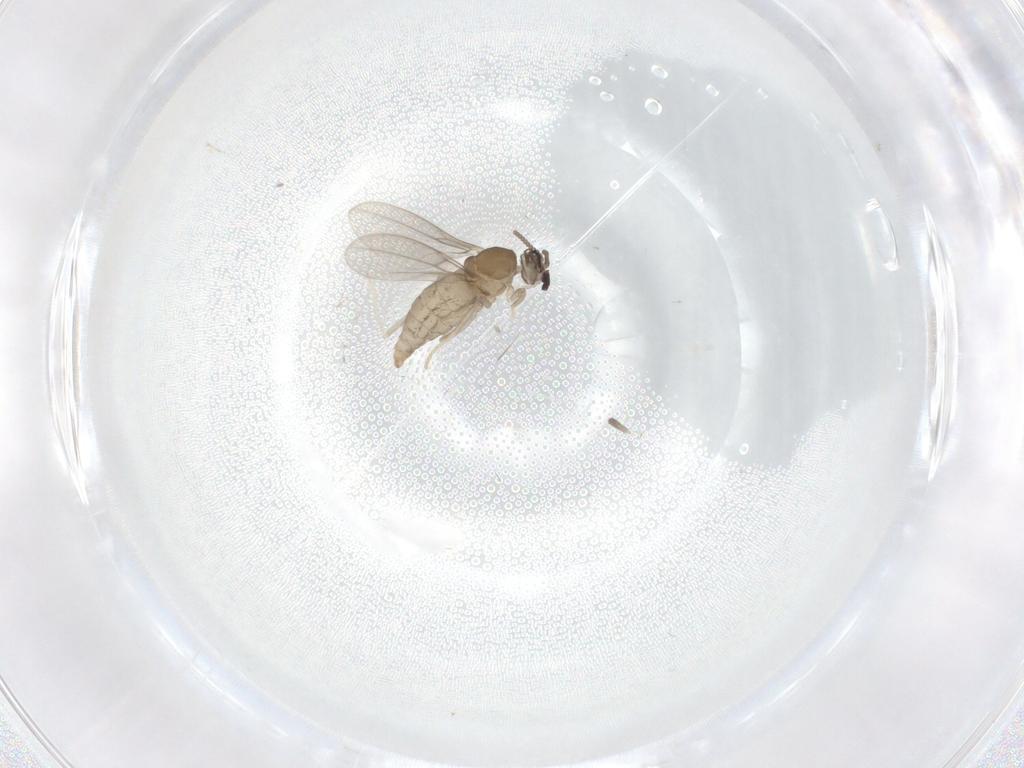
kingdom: Animalia
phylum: Arthropoda
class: Insecta
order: Diptera
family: Cecidomyiidae
